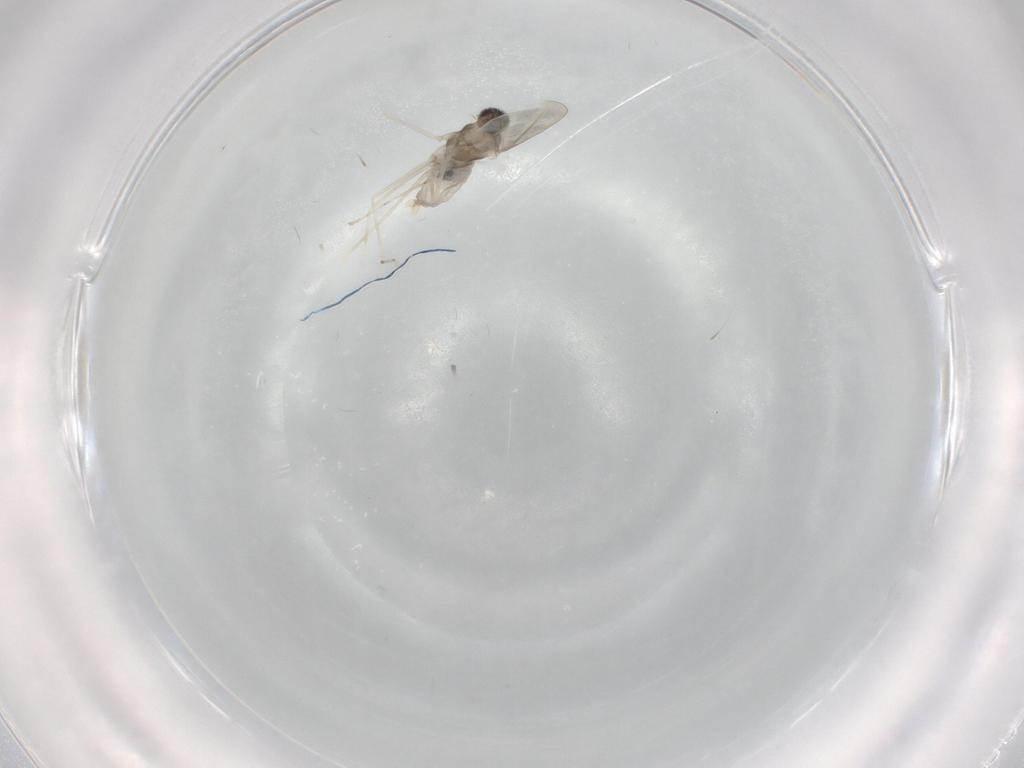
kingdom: Animalia
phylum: Arthropoda
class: Insecta
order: Diptera
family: Cecidomyiidae
